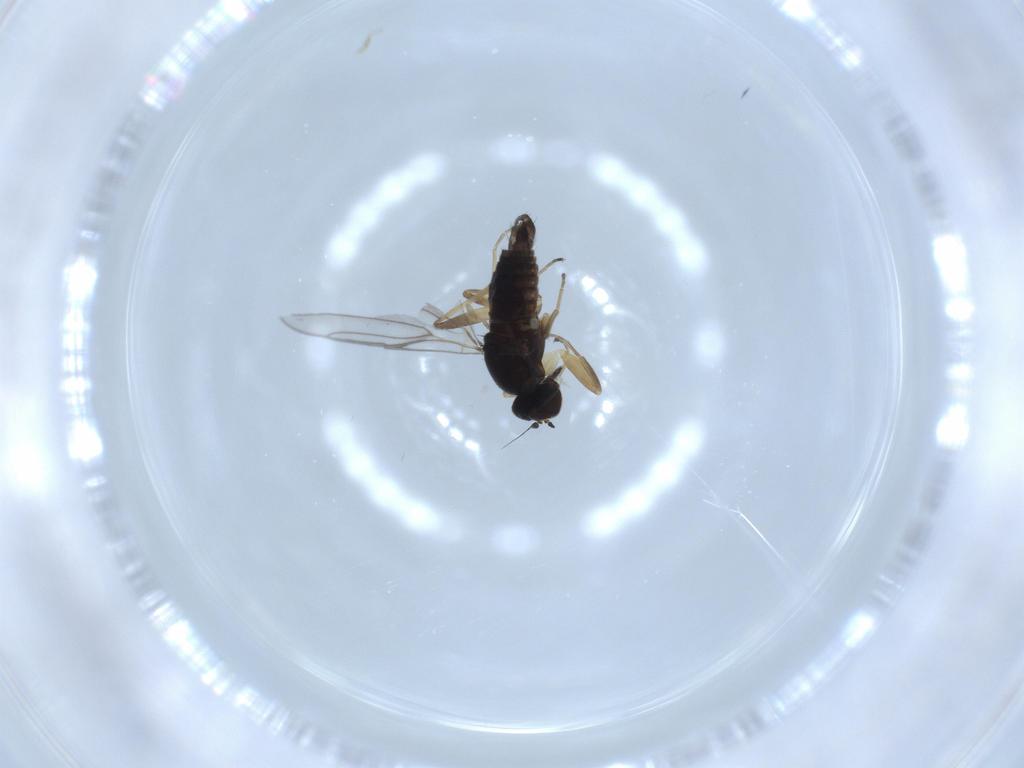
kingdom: Animalia
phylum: Arthropoda
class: Insecta
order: Diptera
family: Hybotidae
